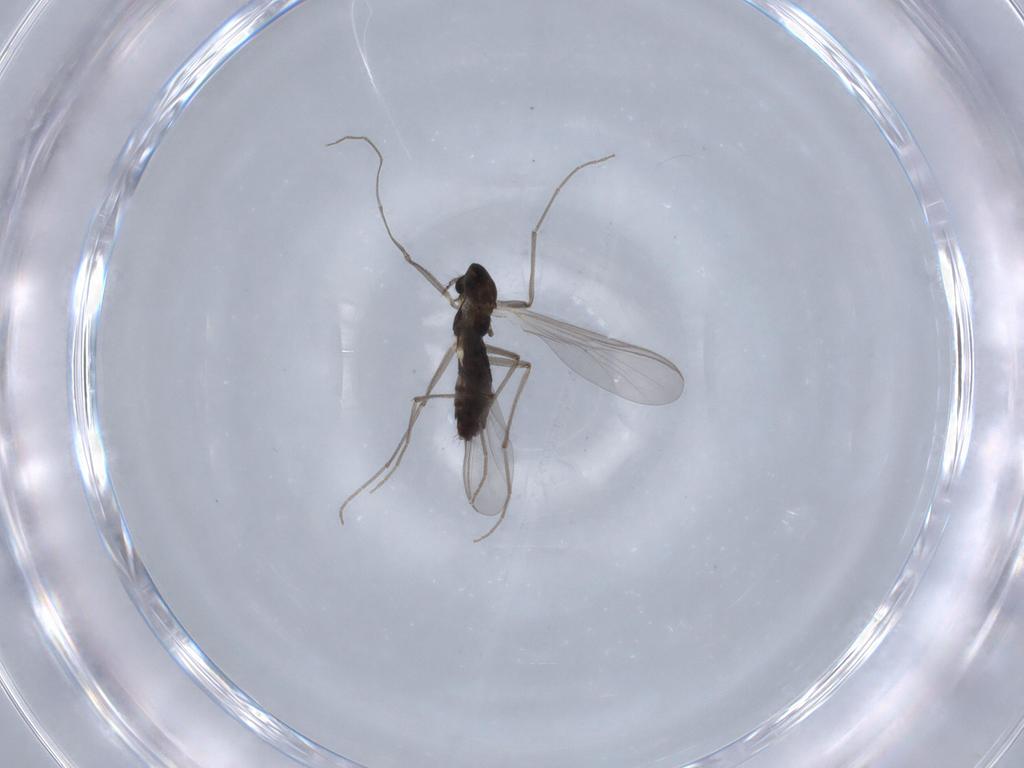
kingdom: Animalia
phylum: Arthropoda
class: Insecta
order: Diptera
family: Chironomidae
